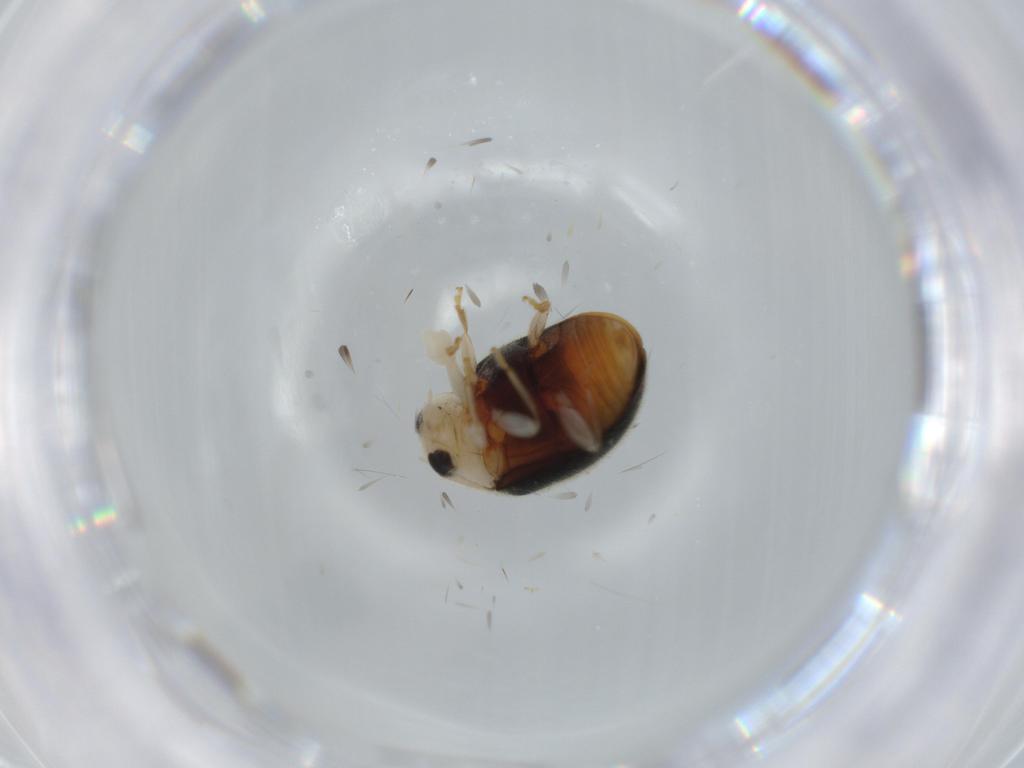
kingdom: Animalia
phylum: Arthropoda
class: Insecta
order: Coleoptera
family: Coccinellidae
